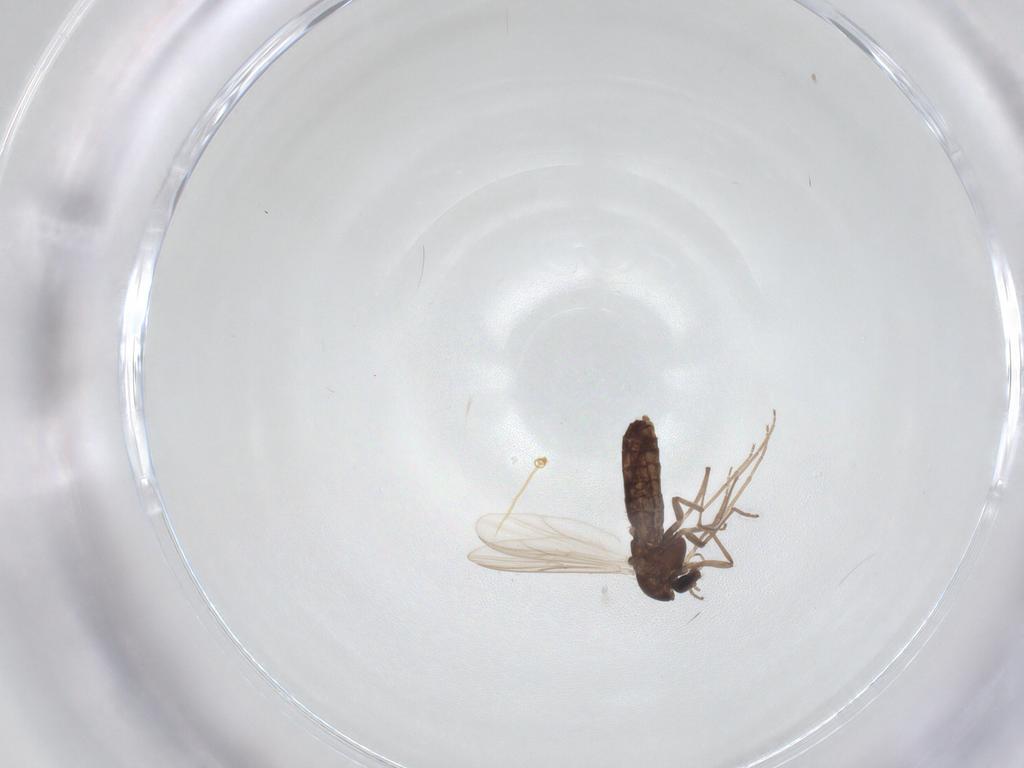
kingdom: Animalia
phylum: Arthropoda
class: Insecta
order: Diptera
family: Chironomidae
